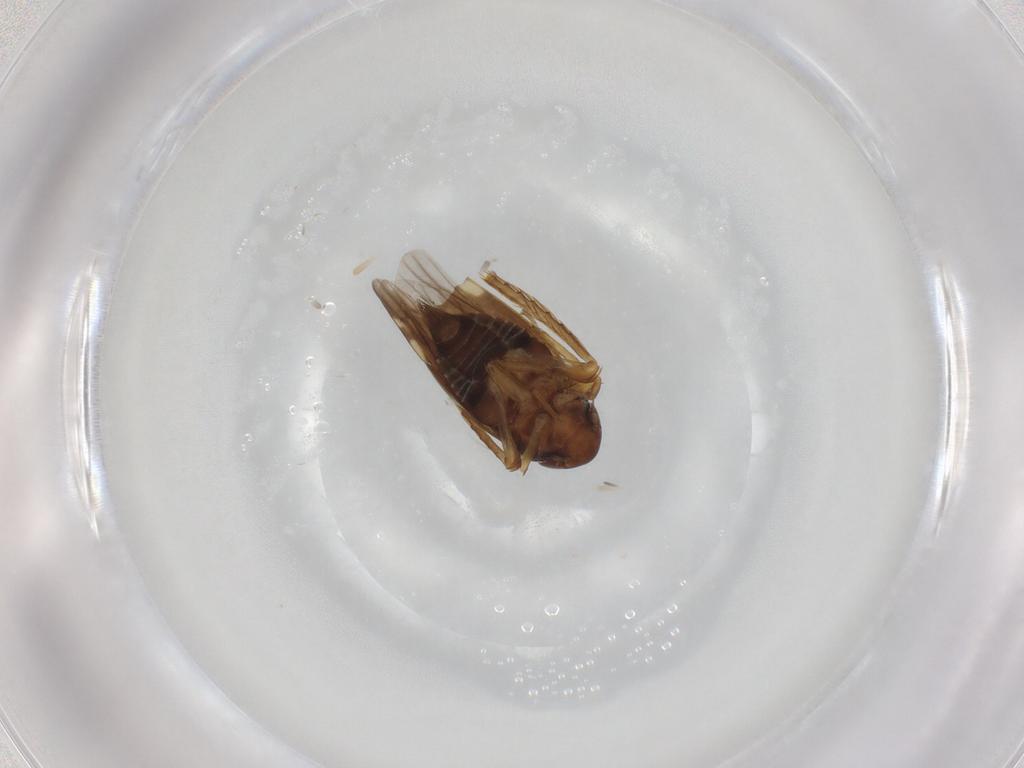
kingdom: Animalia
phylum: Arthropoda
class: Insecta
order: Hemiptera
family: Cicadellidae
